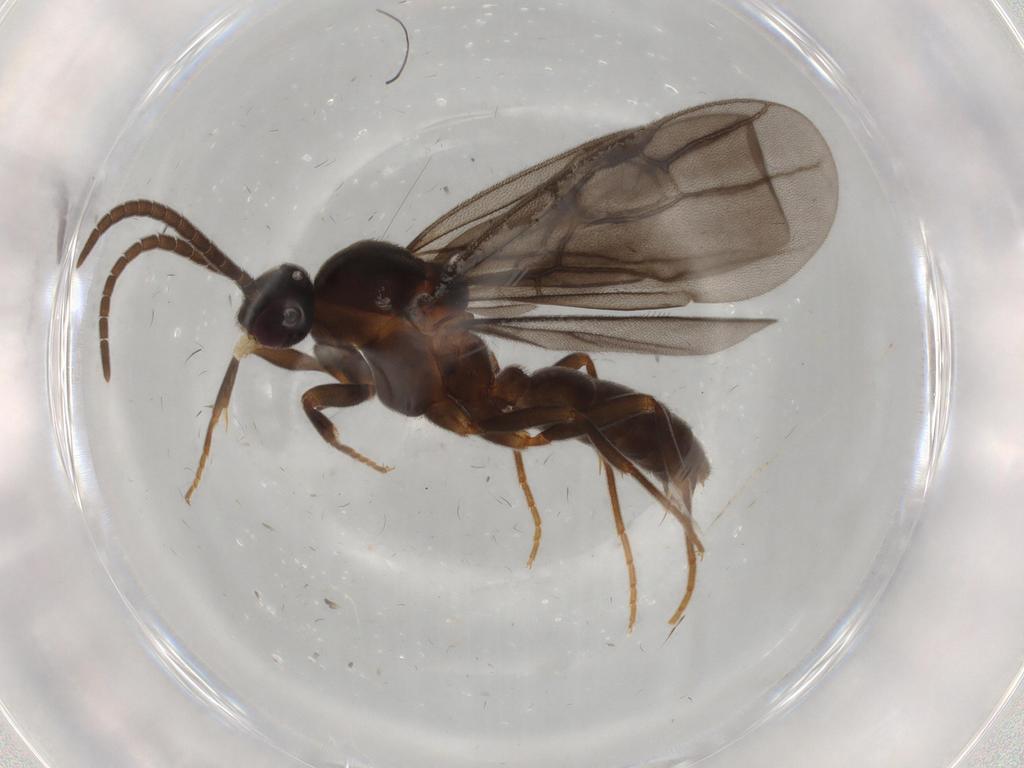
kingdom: Animalia
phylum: Arthropoda
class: Insecta
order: Hymenoptera
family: Formicidae
